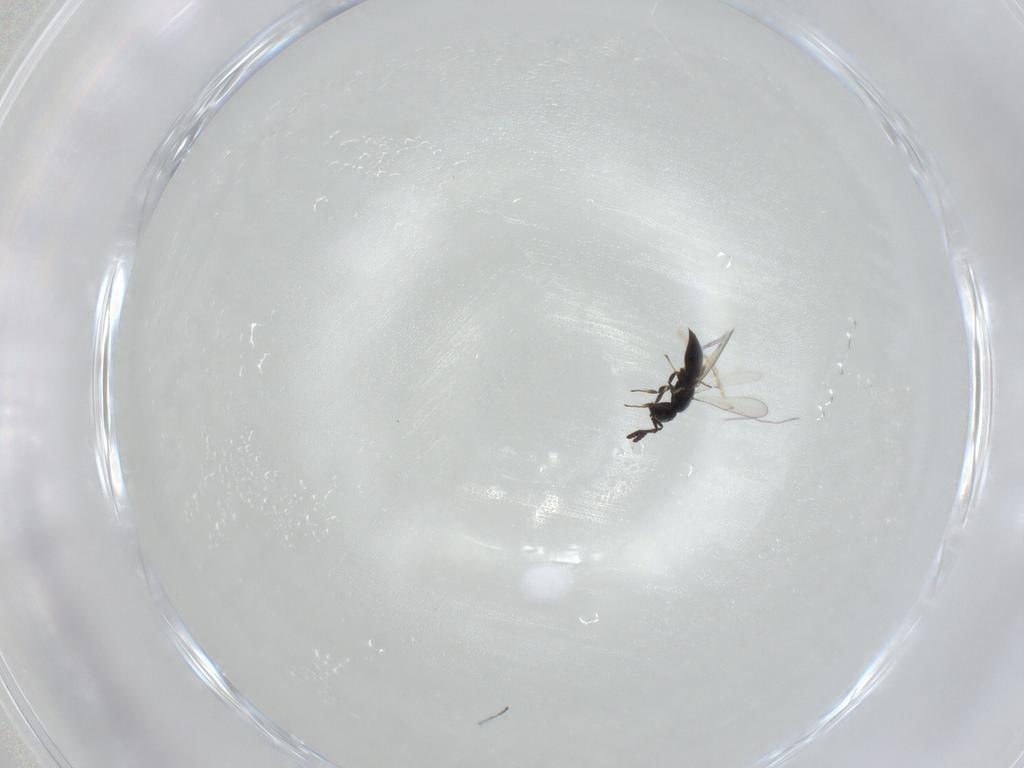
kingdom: Animalia
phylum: Arthropoda
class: Insecta
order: Hymenoptera
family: Scelionidae
